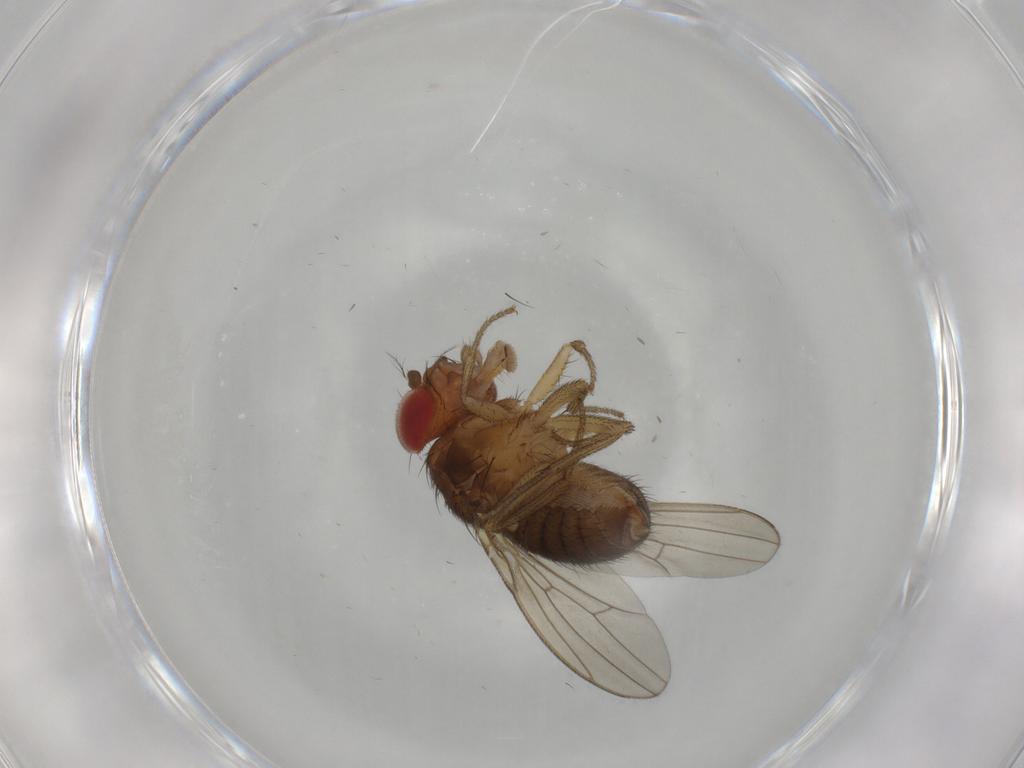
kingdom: Animalia
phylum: Arthropoda
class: Insecta
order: Diptera
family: Drosophilidae
